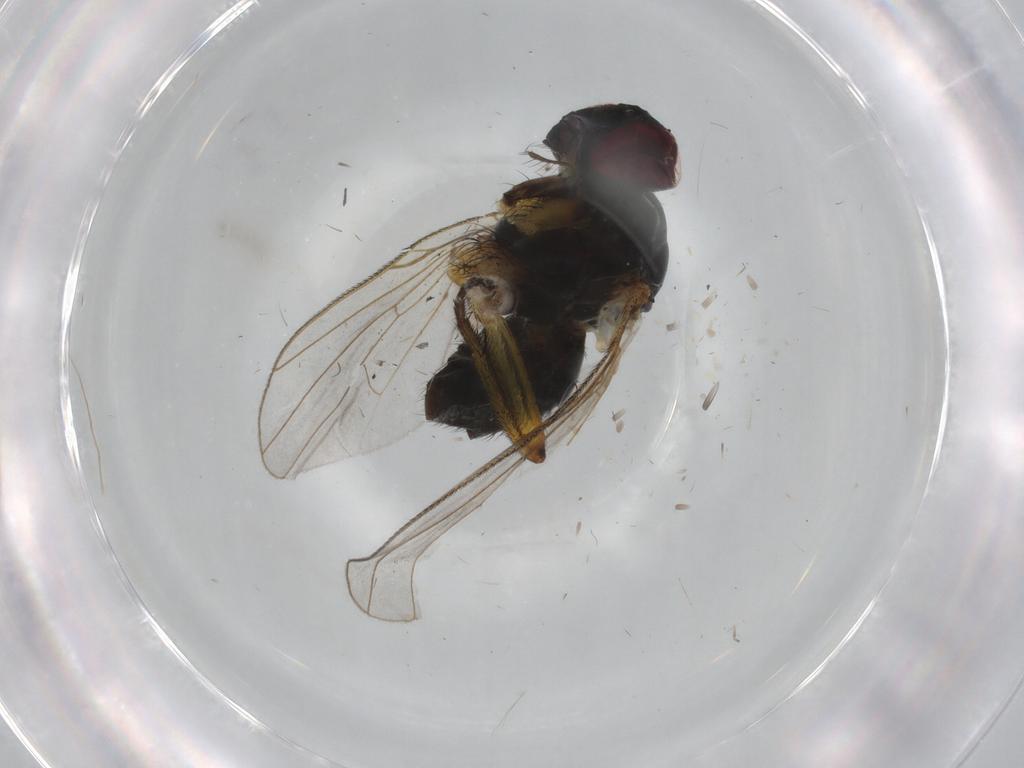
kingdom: Animalia
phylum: Arthropoda
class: Insecta
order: Diptera
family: Muscidae
